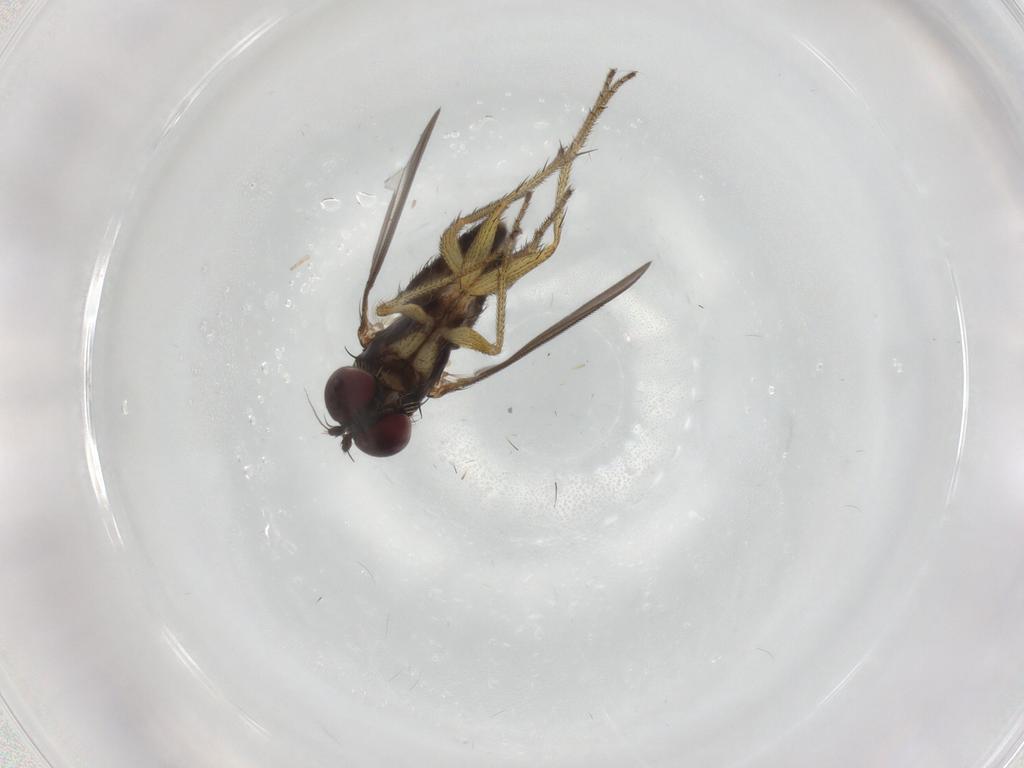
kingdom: Animalia
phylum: Arthropoda
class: Insecta
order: Diptera
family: Dolichopodidae
